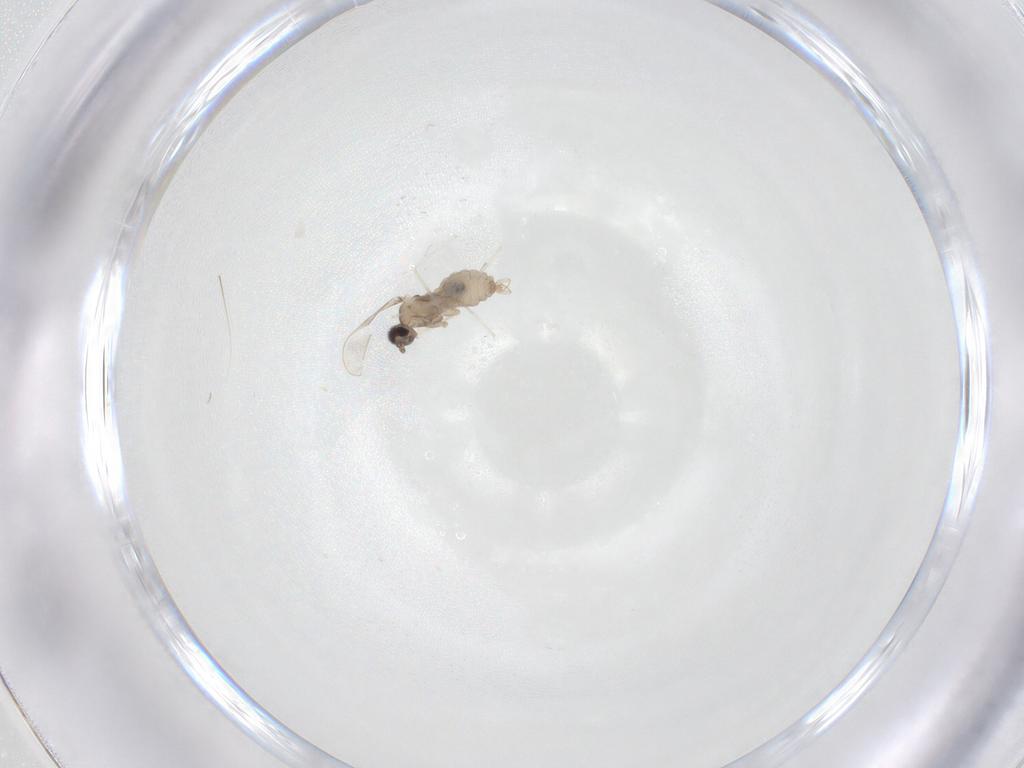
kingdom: Animalia
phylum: Arthropoda
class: Insecta
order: Diptera
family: Cecidomyiidae
